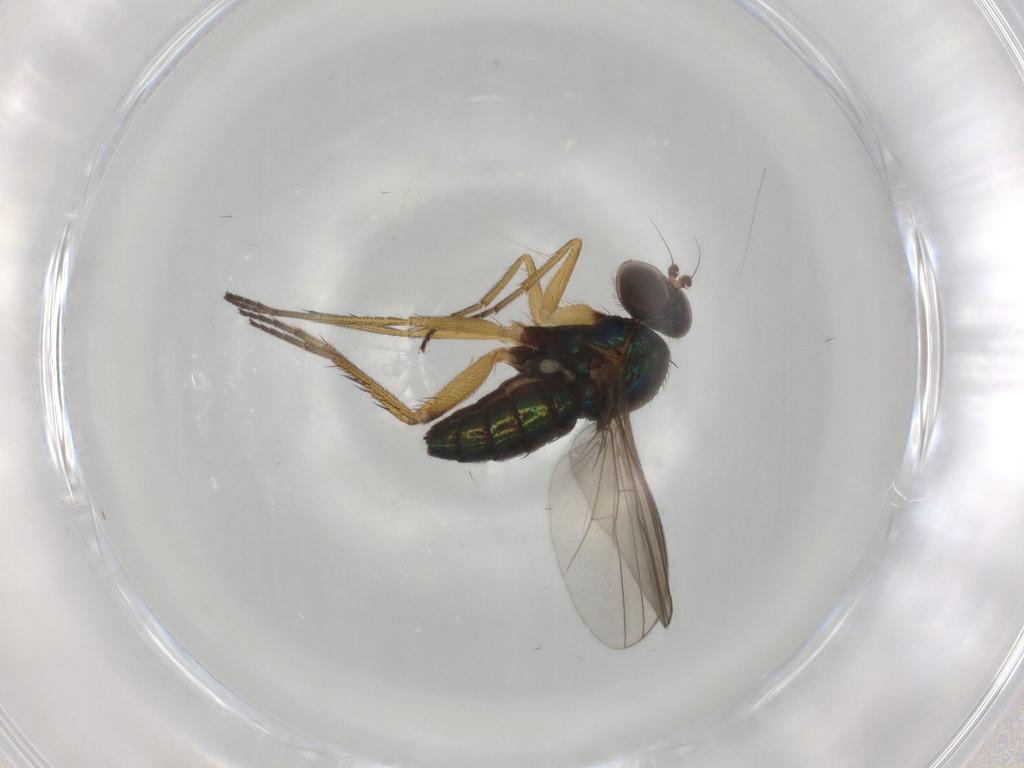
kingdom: Animalia
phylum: Arthropoda
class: Insecta
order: Diptera
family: Dolichopodidae
